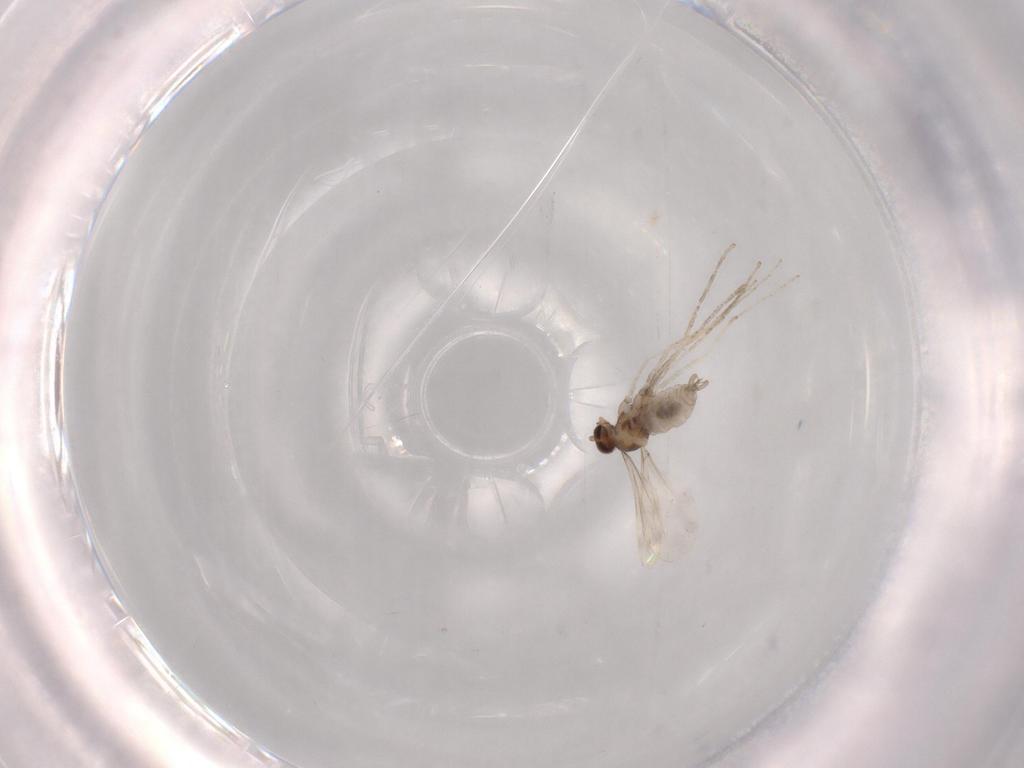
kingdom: Animalia
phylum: Arthropoda
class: Insecta
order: Diptera
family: Cecidomyiidae
